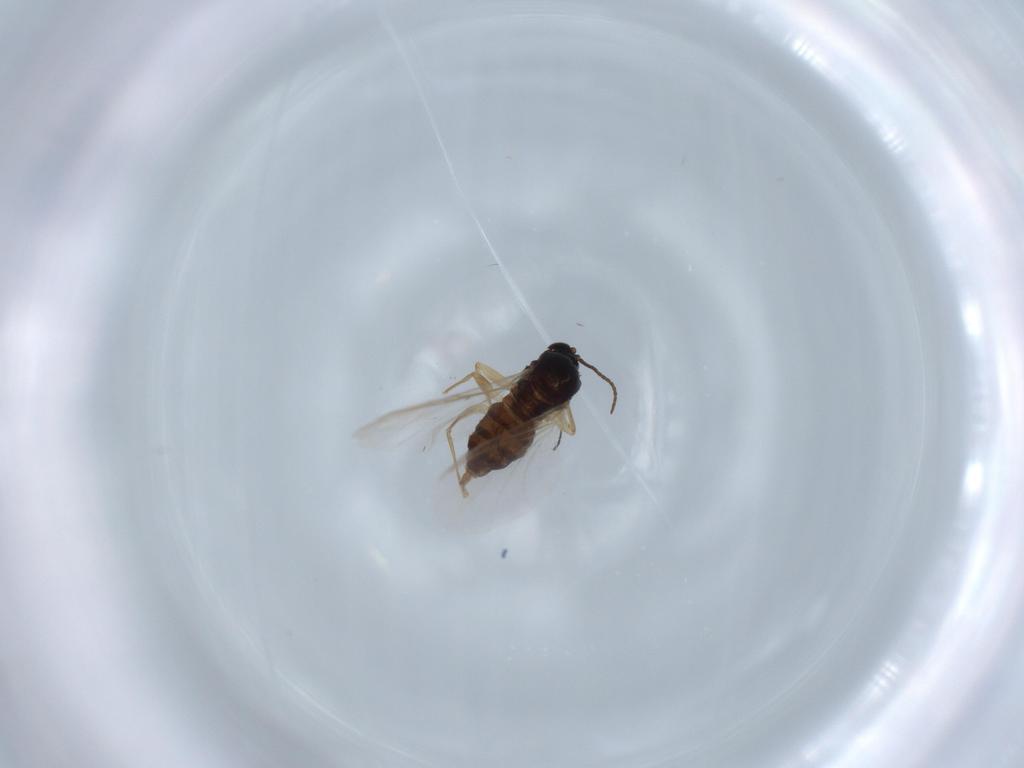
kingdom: Animalia
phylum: Arthropoda
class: Insecta
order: Diptera
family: Sciaridae
